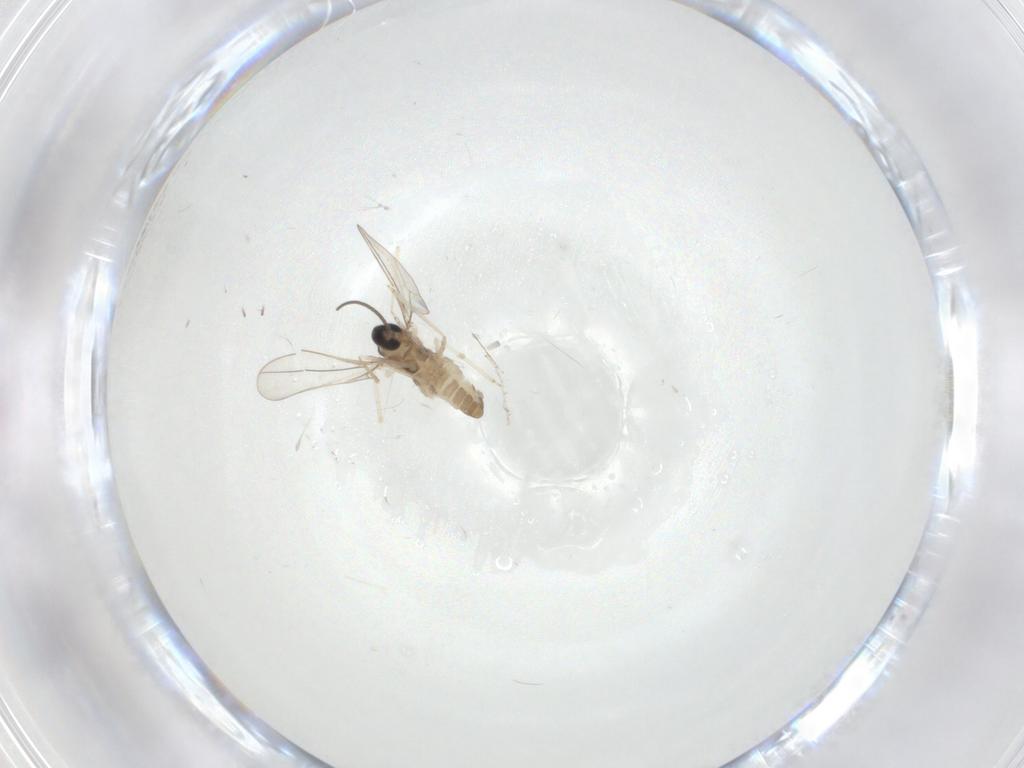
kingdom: Animalia
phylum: Arthropoda
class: Insecta
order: Diptera
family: Cecidomyiidae
